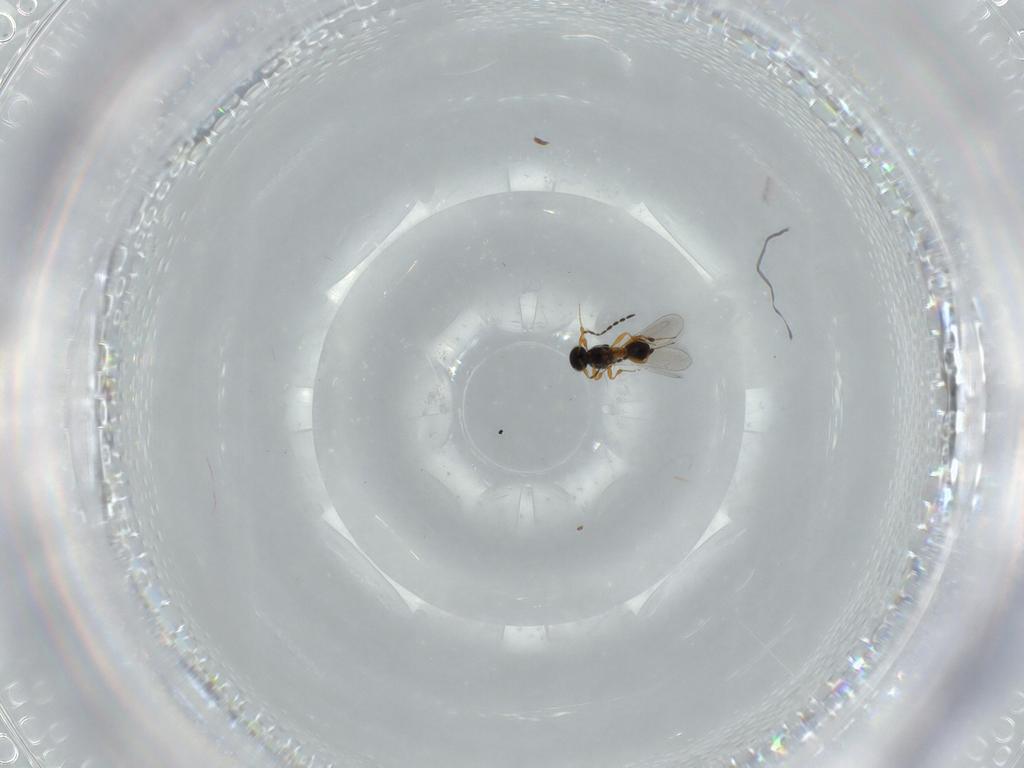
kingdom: Animalia
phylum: Arthropoda
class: Insecta
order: Hymenoptera
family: Platygastridae
